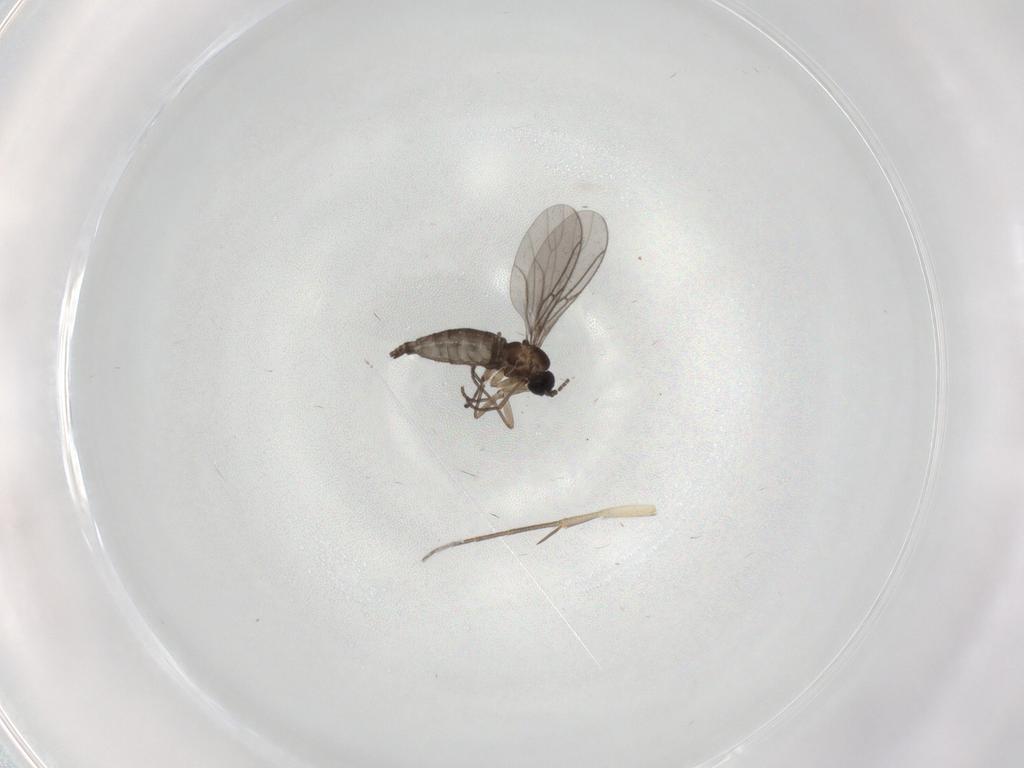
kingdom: Animalia
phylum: Arthropoda
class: Insecta
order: Diptera
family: Sciaridae
